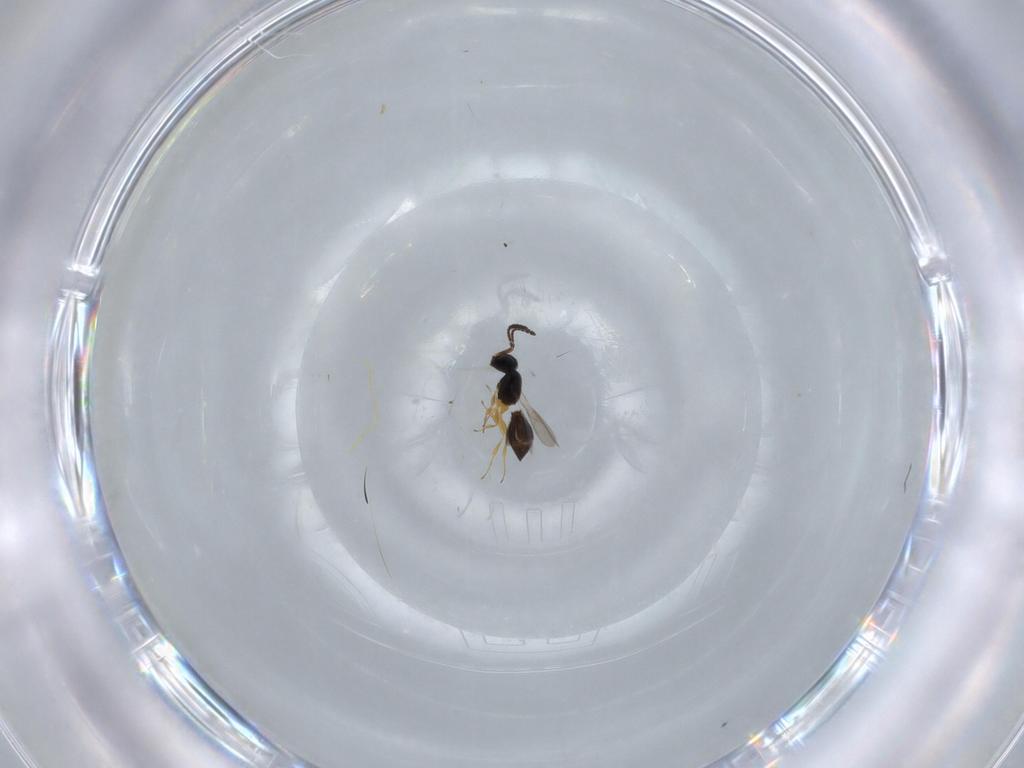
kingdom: Animalia
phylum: Arthropoda
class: Insecta
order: Hymenoptera
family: Scelionidae
